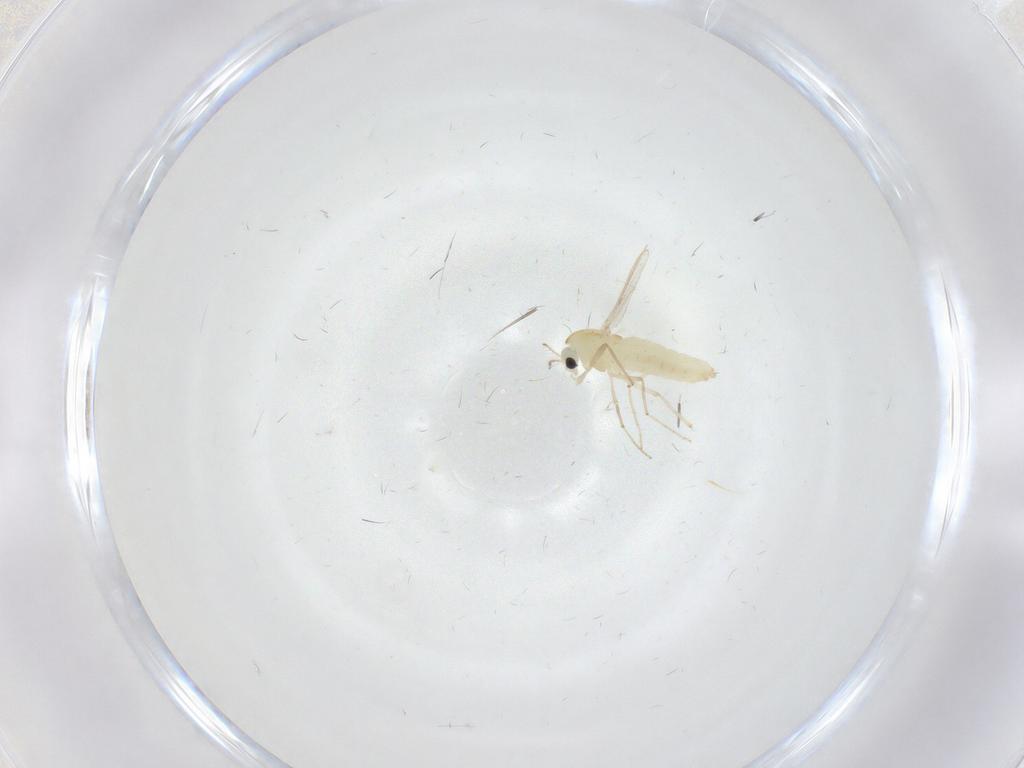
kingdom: Animalia
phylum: Arthropoda
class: Insecta
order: Diptera
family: Chironomidae
